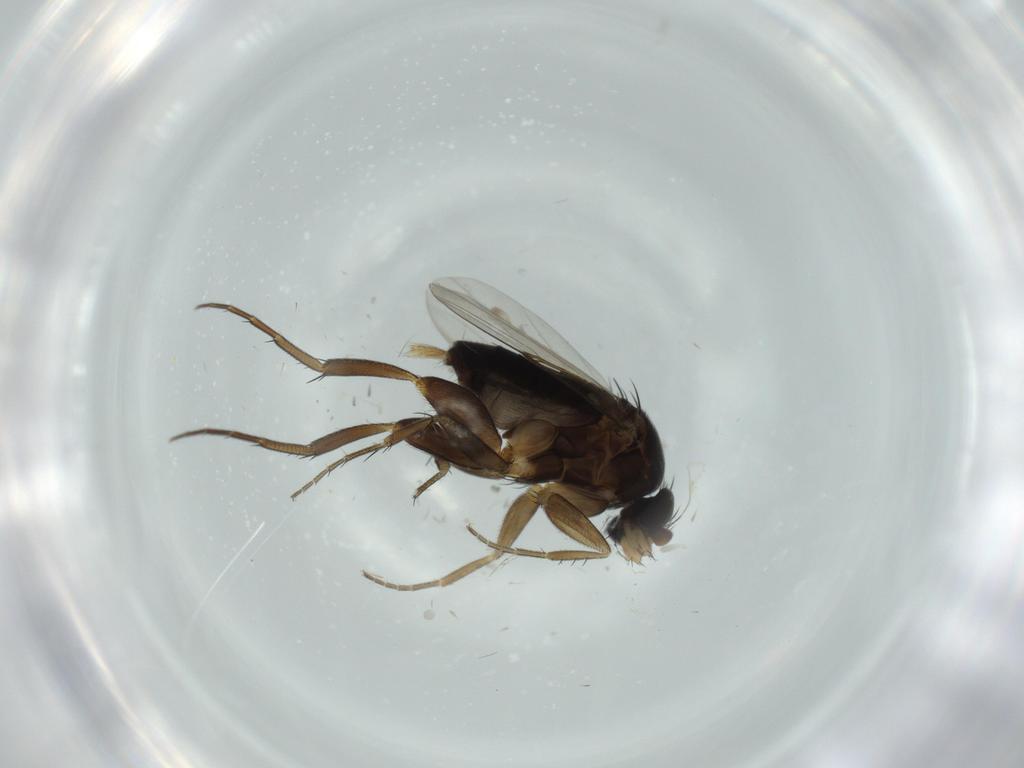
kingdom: Animalia
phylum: Arthropoda
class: Insecta
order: Diptera
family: Phoridae
